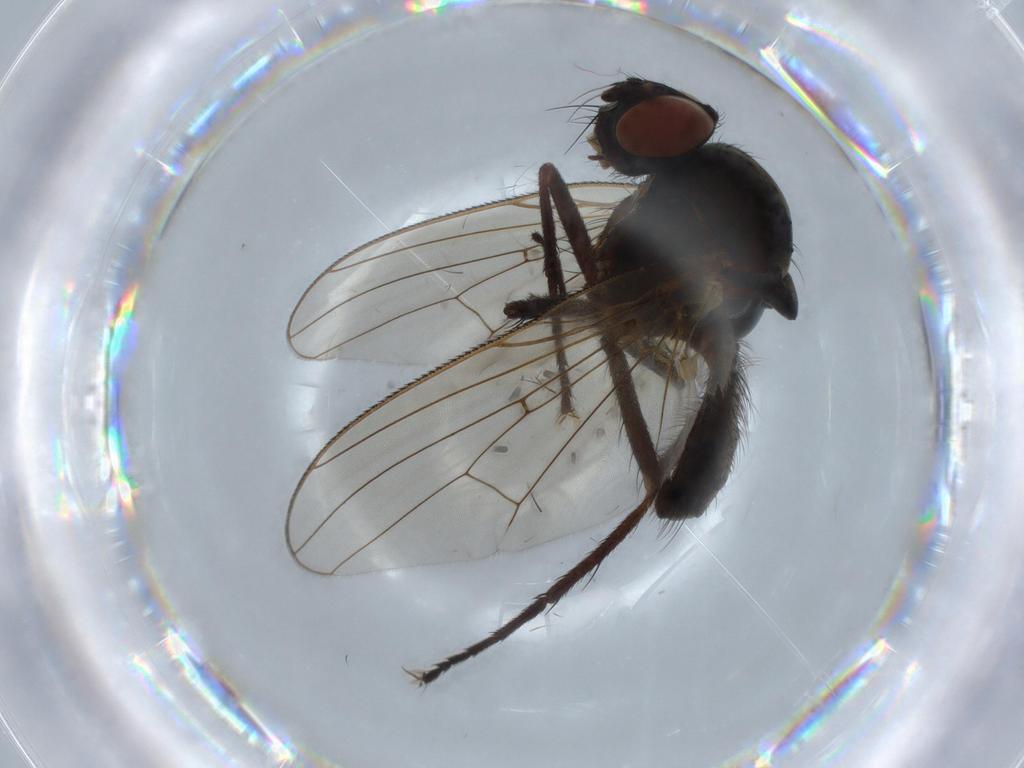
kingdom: Animalia
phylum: Arthropoda
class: Insecta
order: Diptera
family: Anthomyiidae
